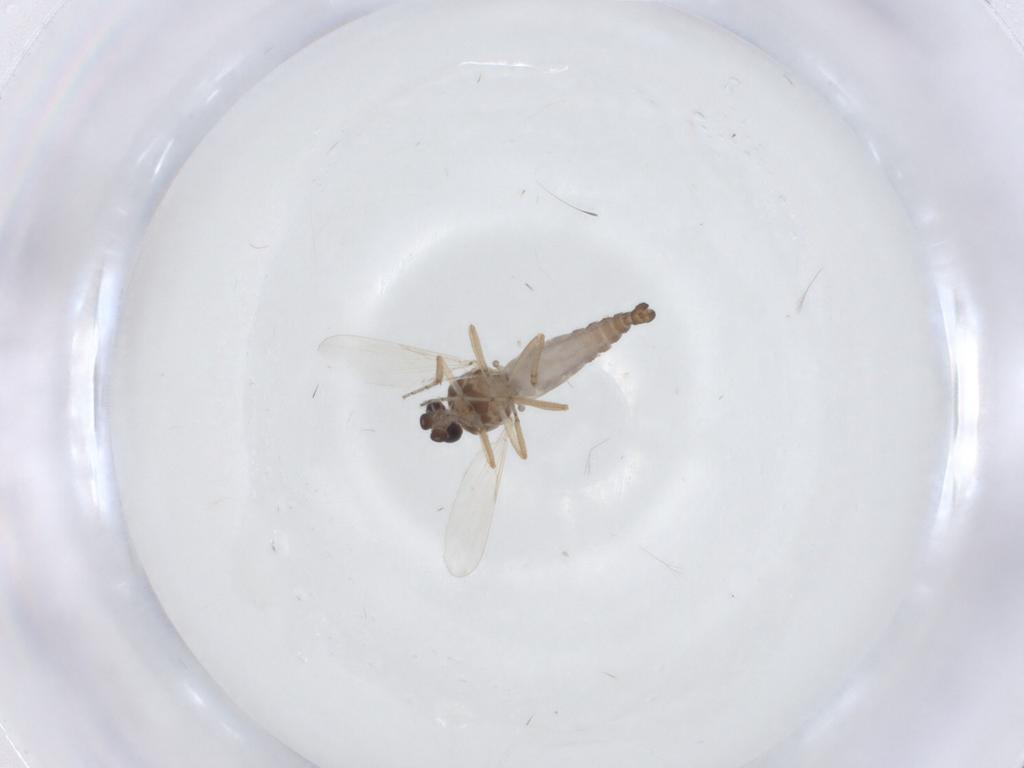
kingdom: Animalia
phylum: Arthropoda
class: Insecta
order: Diptera
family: Ceratopogonidae
